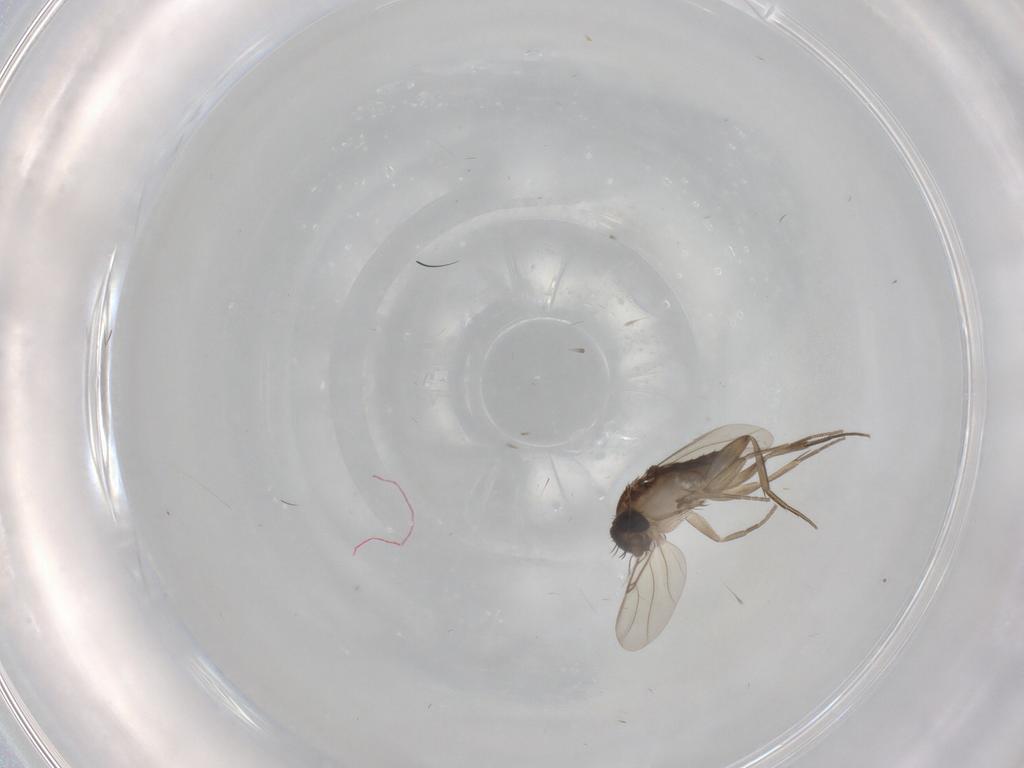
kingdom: Animalia
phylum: Arthropoda
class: Insecta
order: Diptera
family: Phoridae
